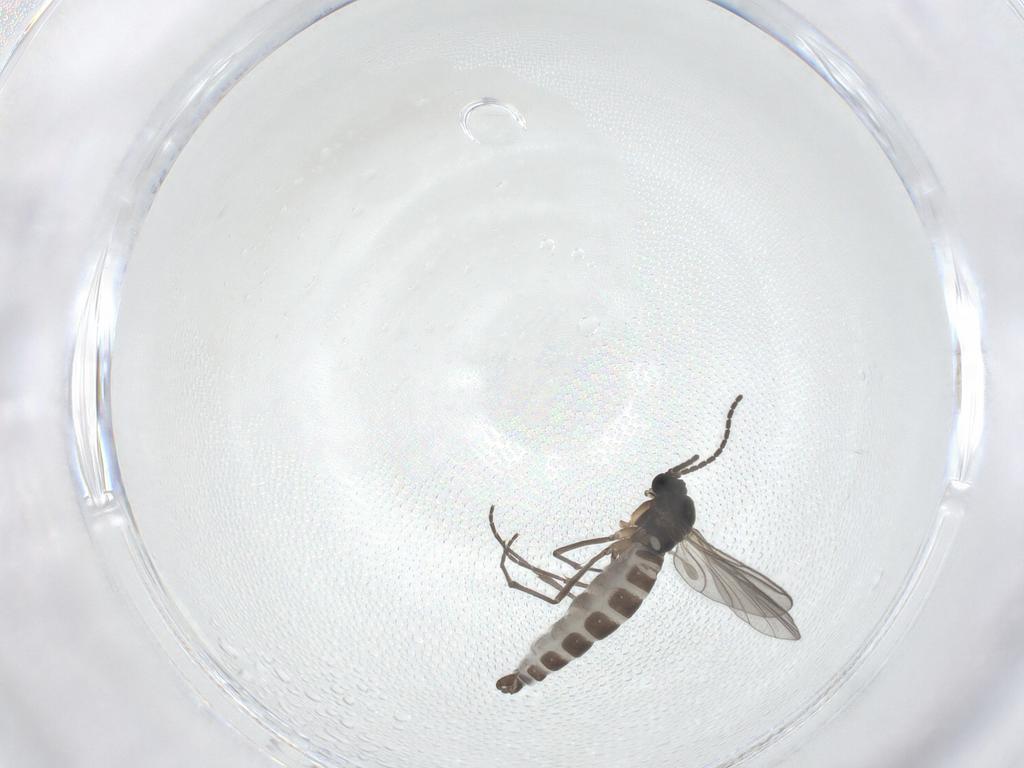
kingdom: Animalia
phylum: Arthropoda
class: Insecta
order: Diptera
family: Sciaridae
